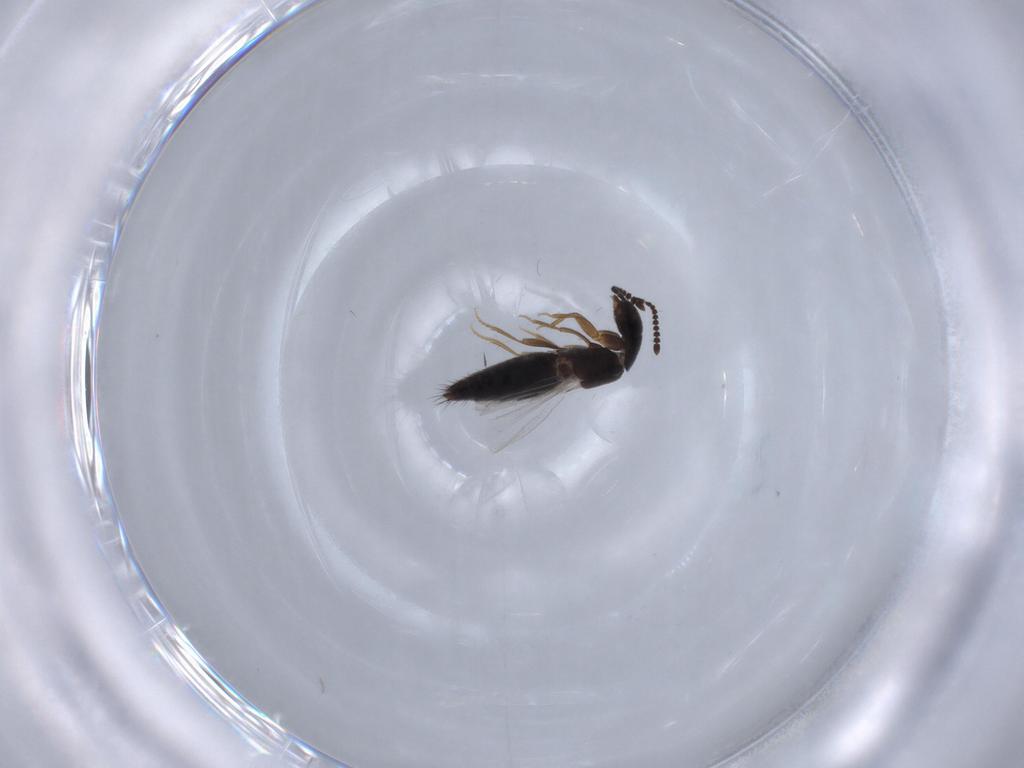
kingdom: Animalia
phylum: Arthropoda
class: Insecta
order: Coleoptera
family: Staphylinidae
